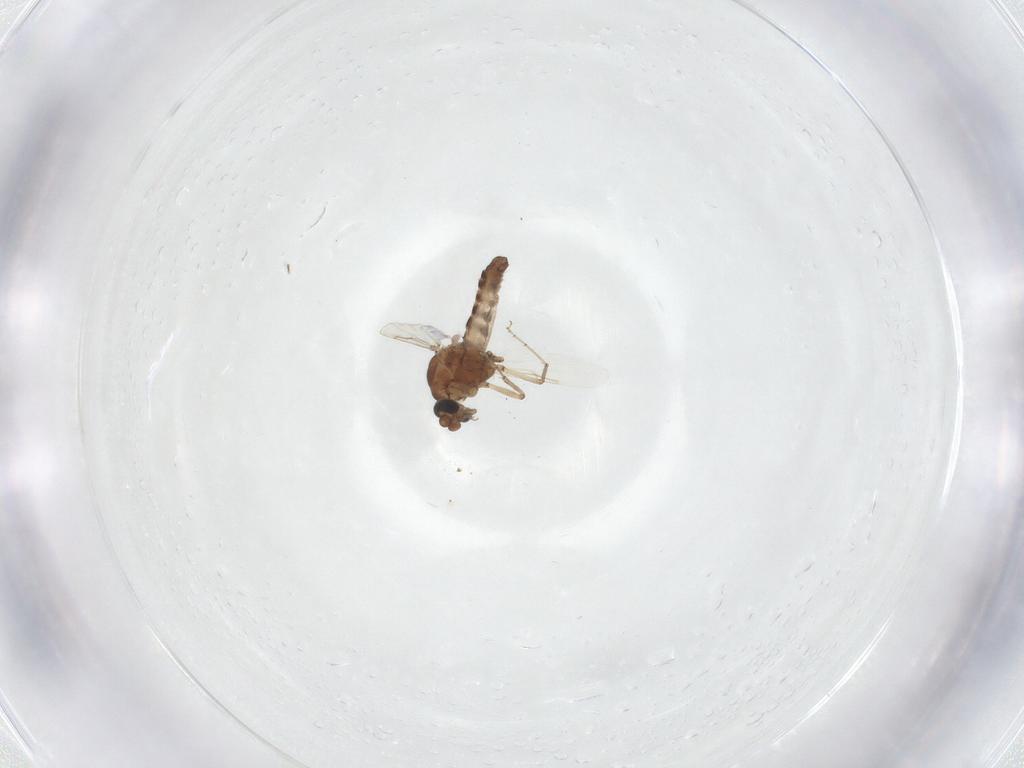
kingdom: Animalia
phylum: Arthropoda
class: Insecta
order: Diptera
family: Ceratopogonidae
